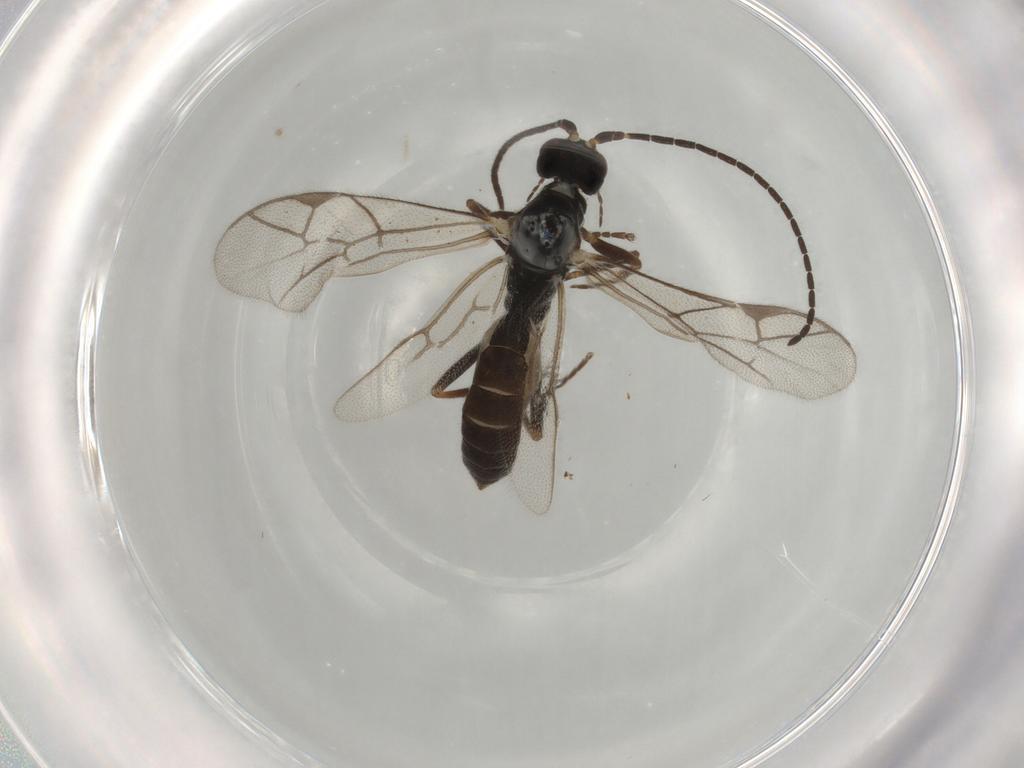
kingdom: Animalia
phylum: Arthropoda
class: Insecta
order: Hymenoptera
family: Ichneumonidae
